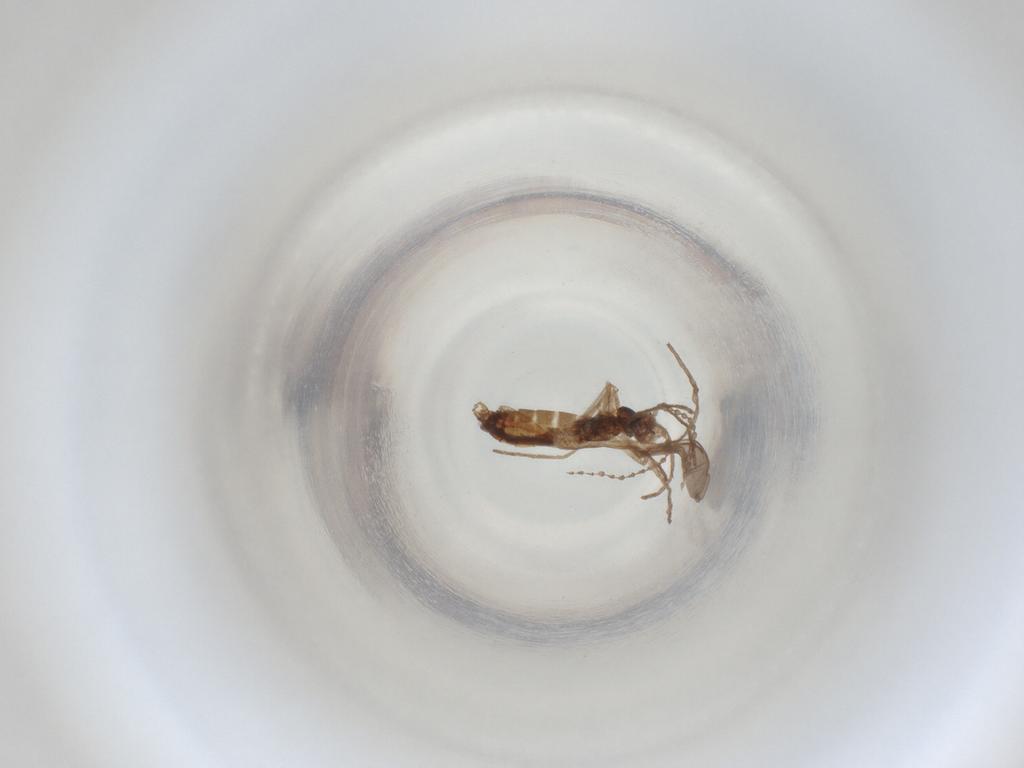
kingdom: Animalia
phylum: Arthropoda
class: Insecta
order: Diptera
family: Cecidomyiidae
